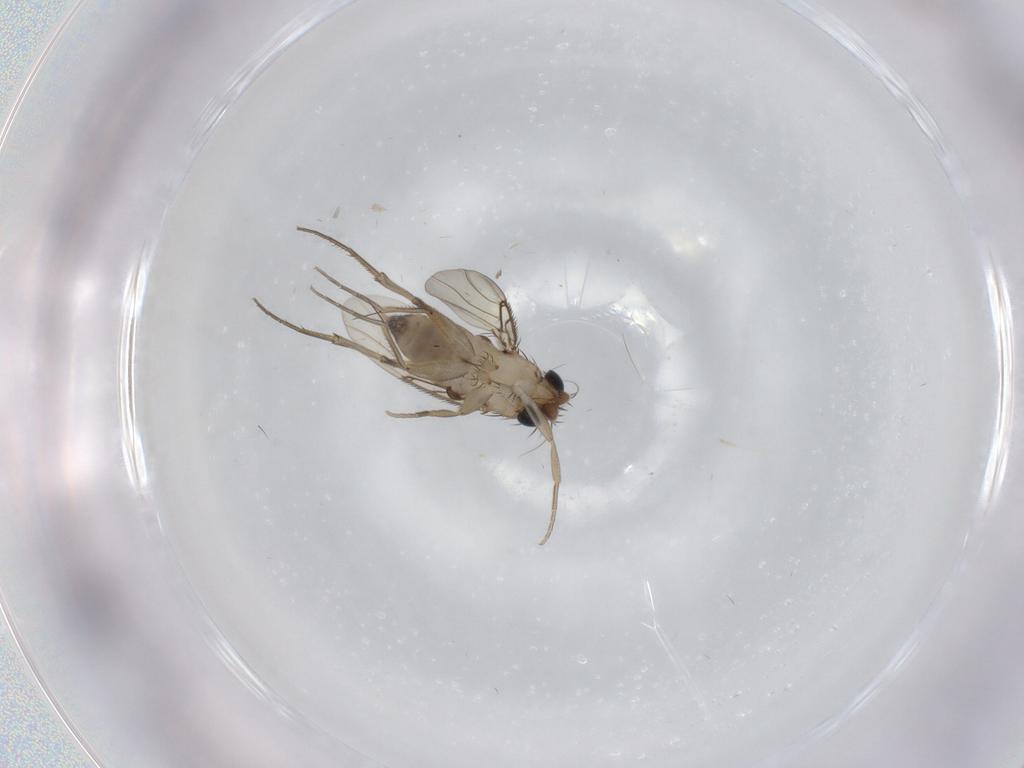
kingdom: Animalia
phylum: Arthropoda
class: Insecta
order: Diptera
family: Phoridae
